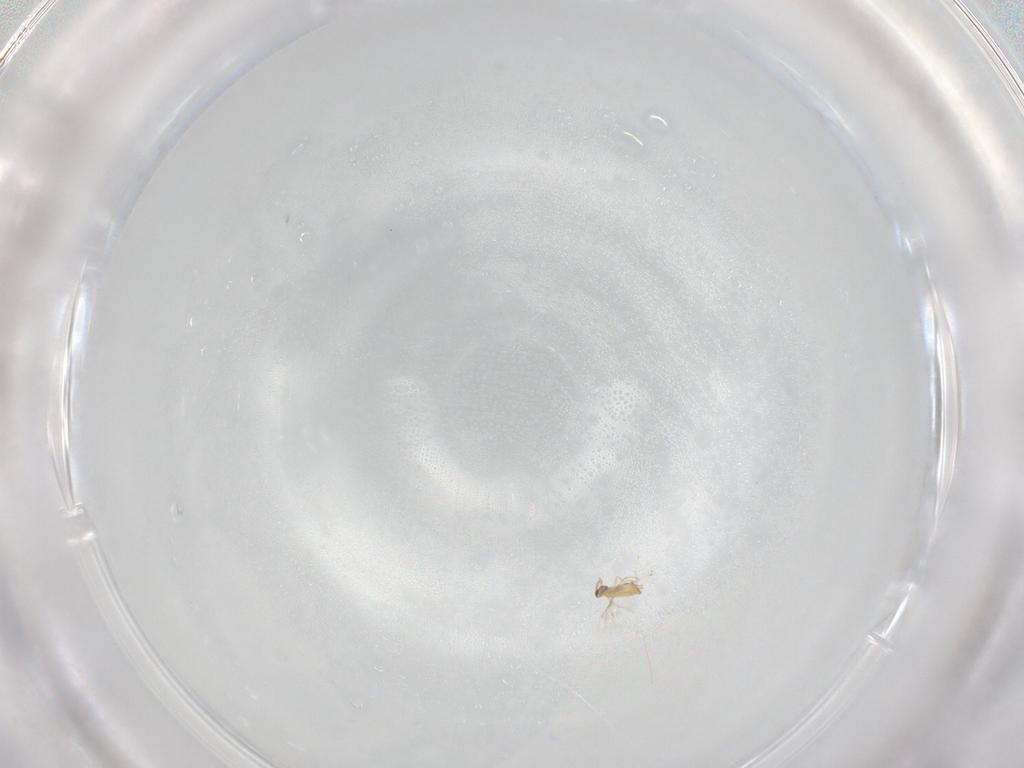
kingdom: Animalia
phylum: Arthropoda
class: Insecta
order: Hymenoptera
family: Trichogrammatidae
